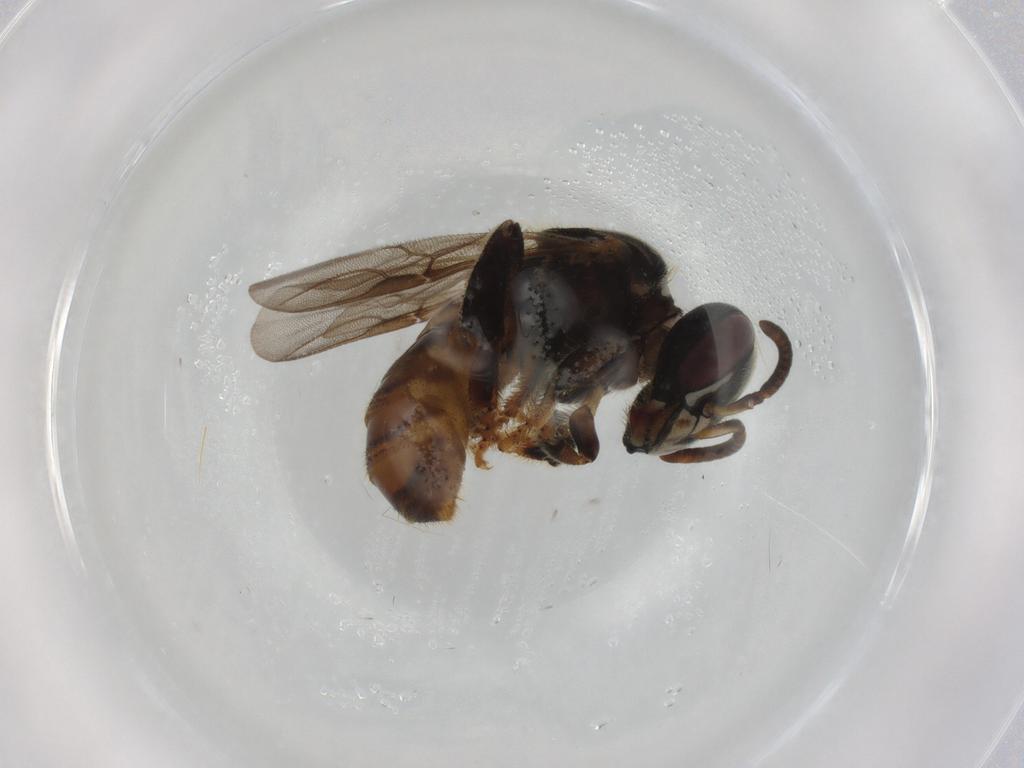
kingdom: Animalia
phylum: Arthropoda
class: Insecta
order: Hymenoptera
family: Apidae
